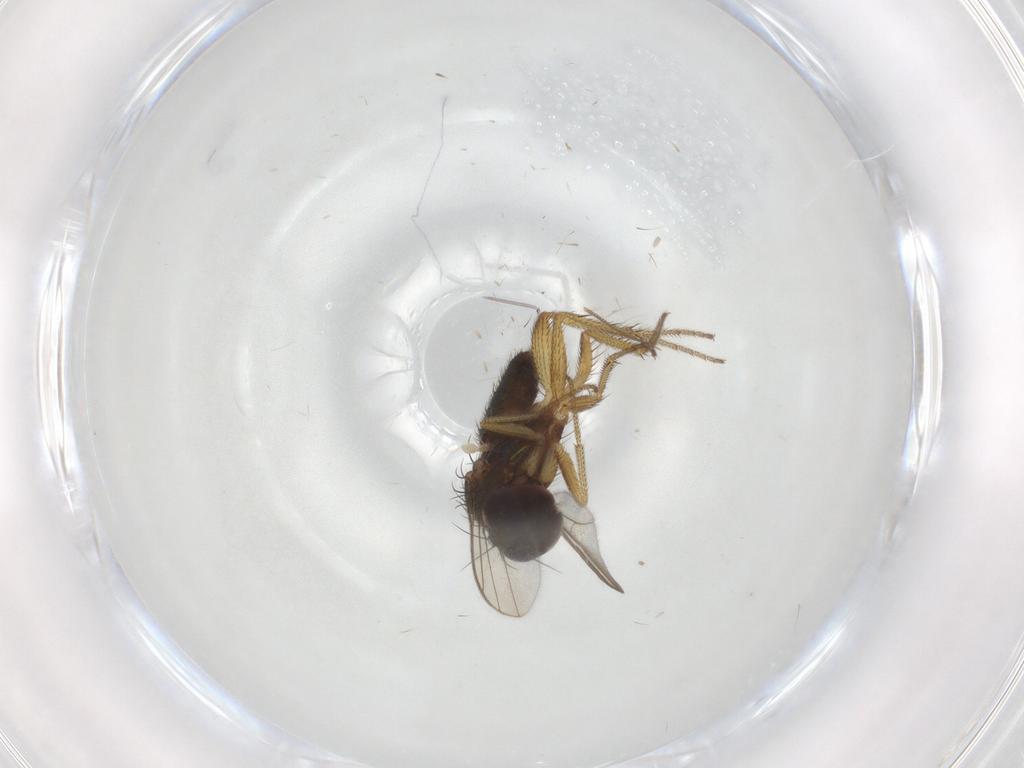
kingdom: Animalia
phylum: Arthropoda
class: Insecta
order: Diptera
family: Dolichopodidae
